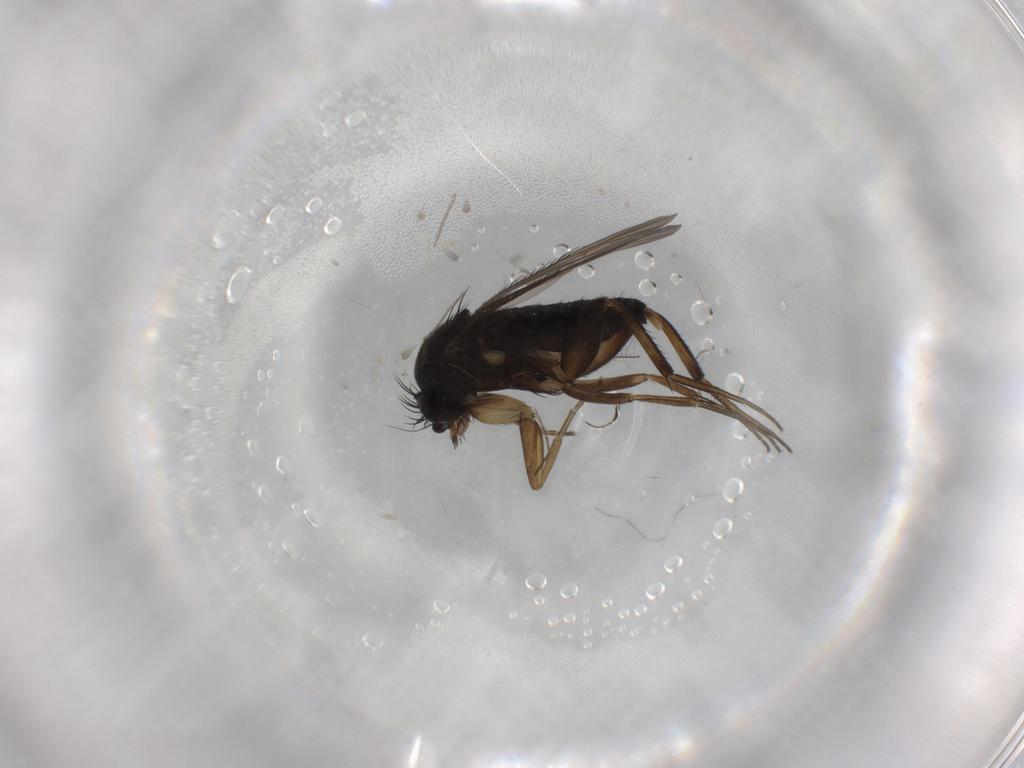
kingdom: Animalia
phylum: Arthropoda
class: Insecta
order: Diptera
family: Phoridae
